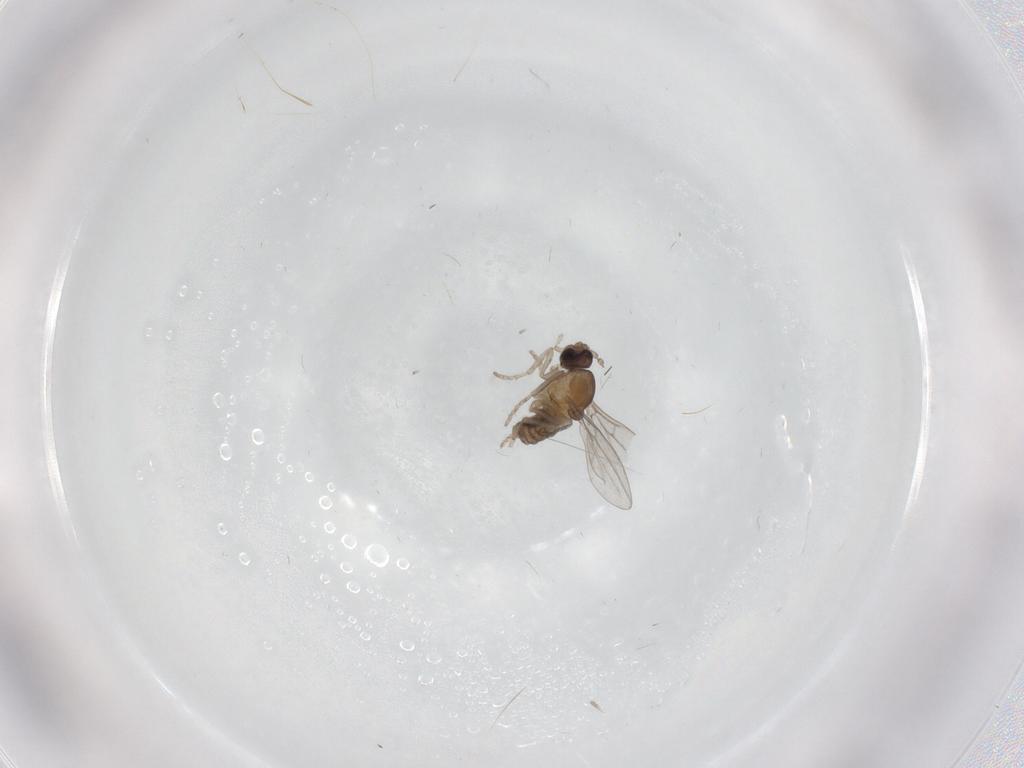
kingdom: Animalia
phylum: Arthropoda
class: Insecta
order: Diptera
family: Cecidomyiidae
